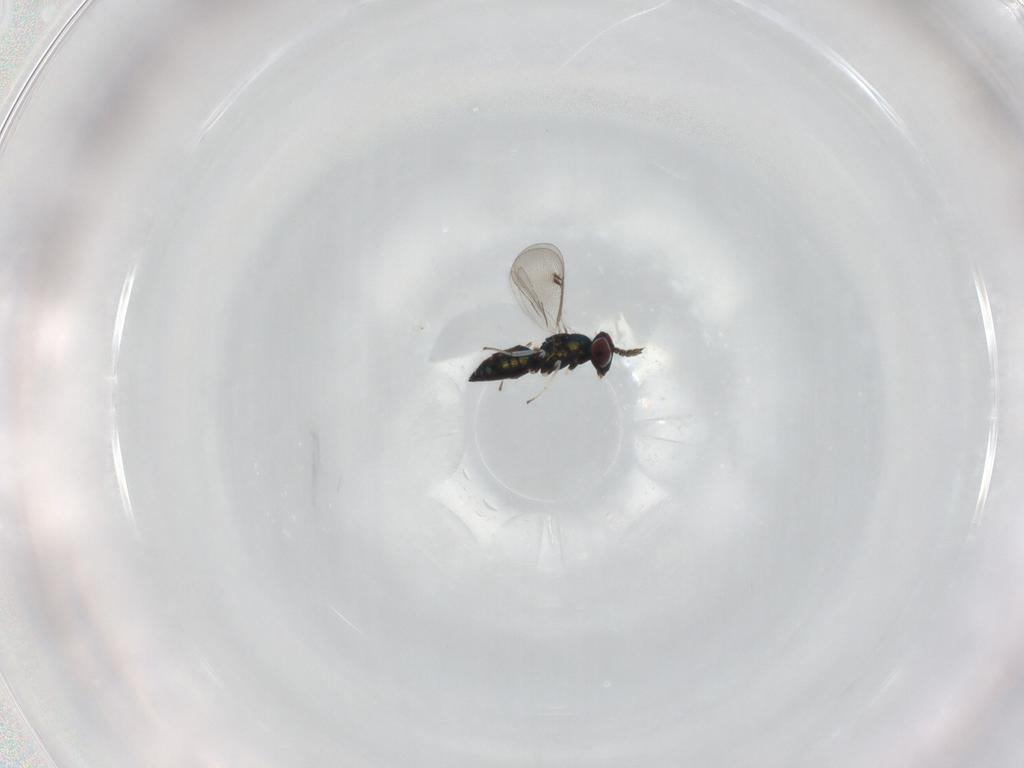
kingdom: Animalia
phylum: Arthropoda
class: Insecta
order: Hymenoptera
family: Eulophidae
